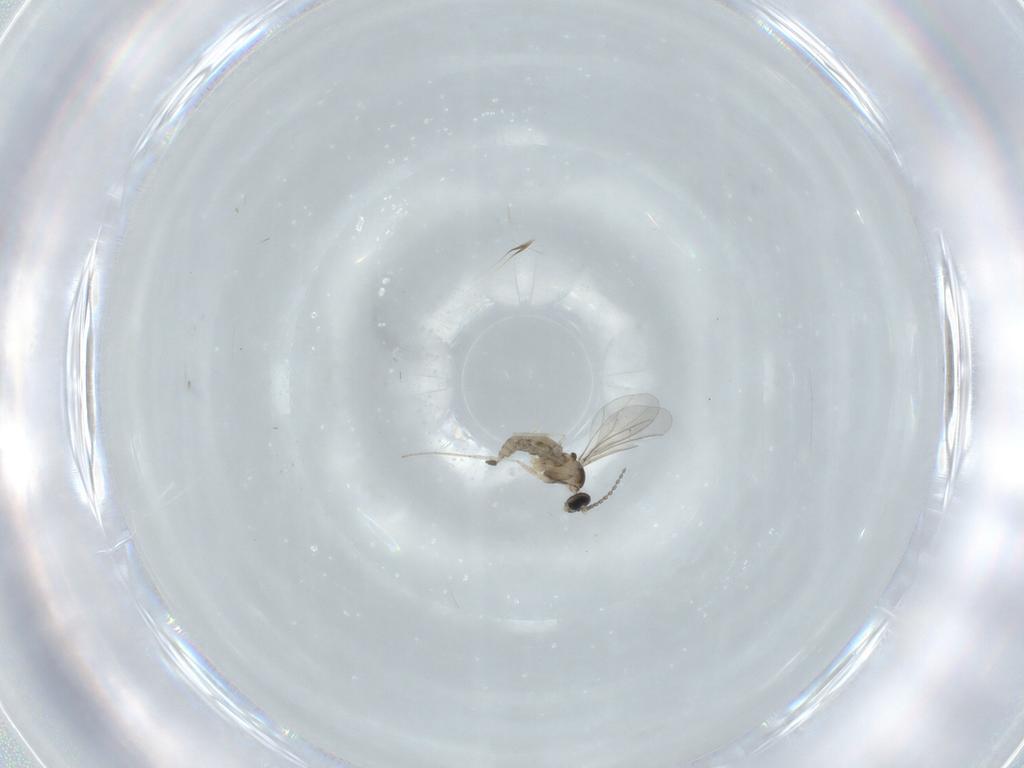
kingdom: Animalia
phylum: Arthropoda
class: Insecta
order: Diptera
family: Cecidomyiidae
